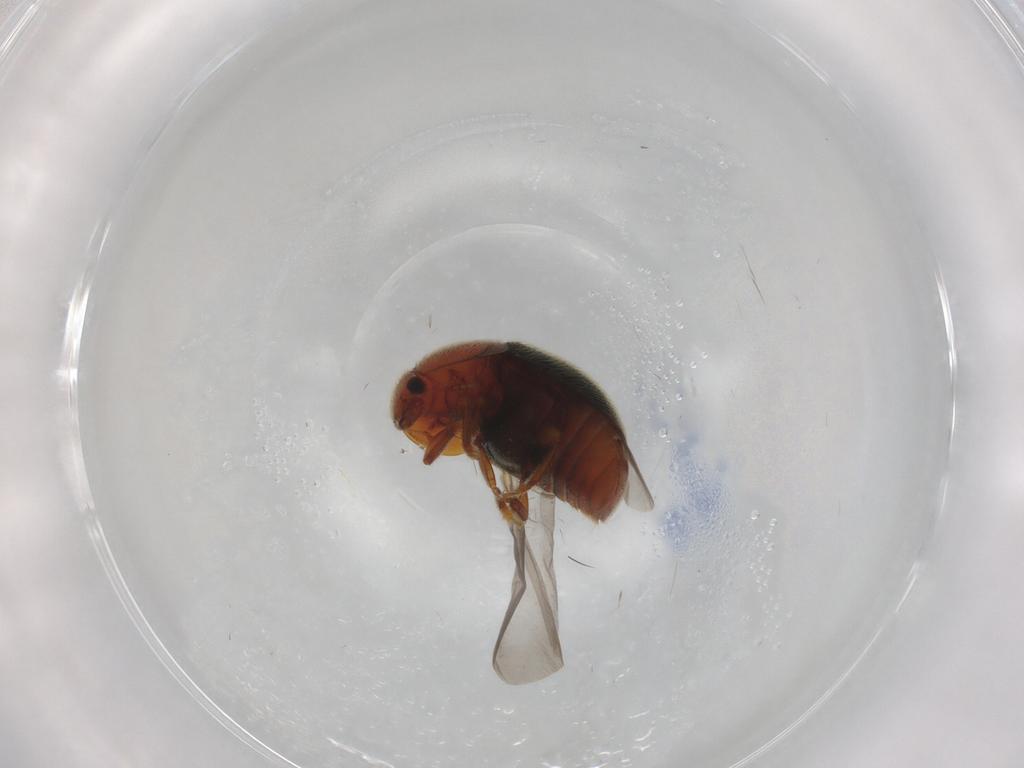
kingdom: Animalia
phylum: Arthropoda
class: Insecta
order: Coleoptera
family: Nitidulidae
